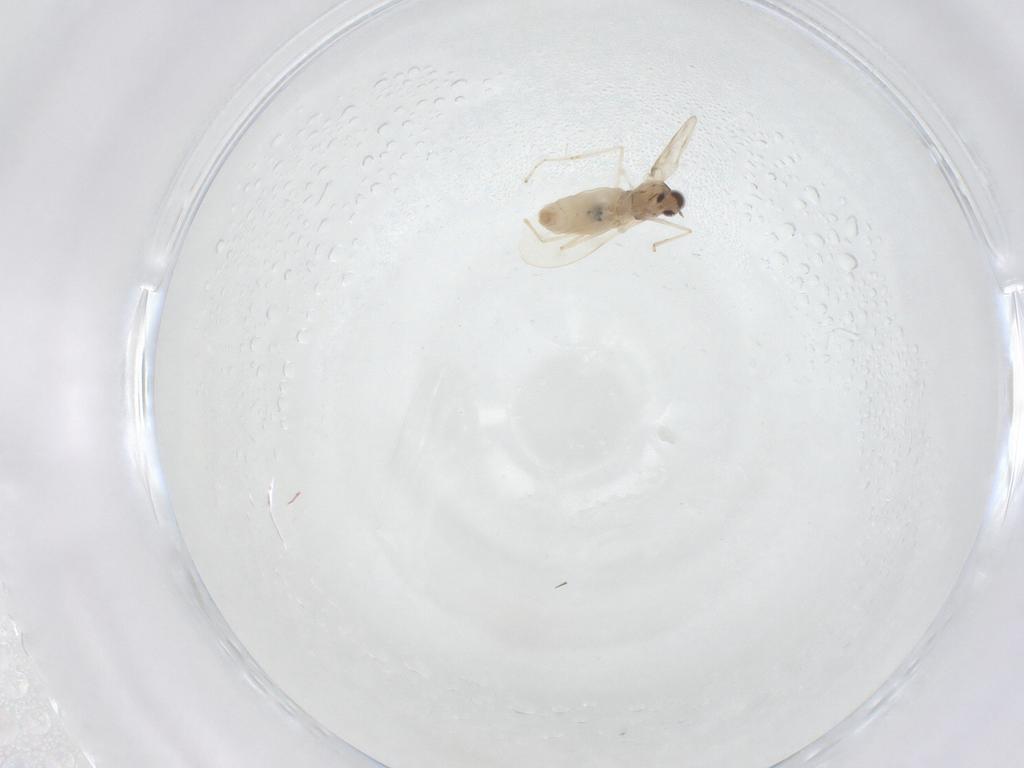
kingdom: Animalia
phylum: Arthropoda
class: Insecta
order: Diptera
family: Cecidomyiidae
